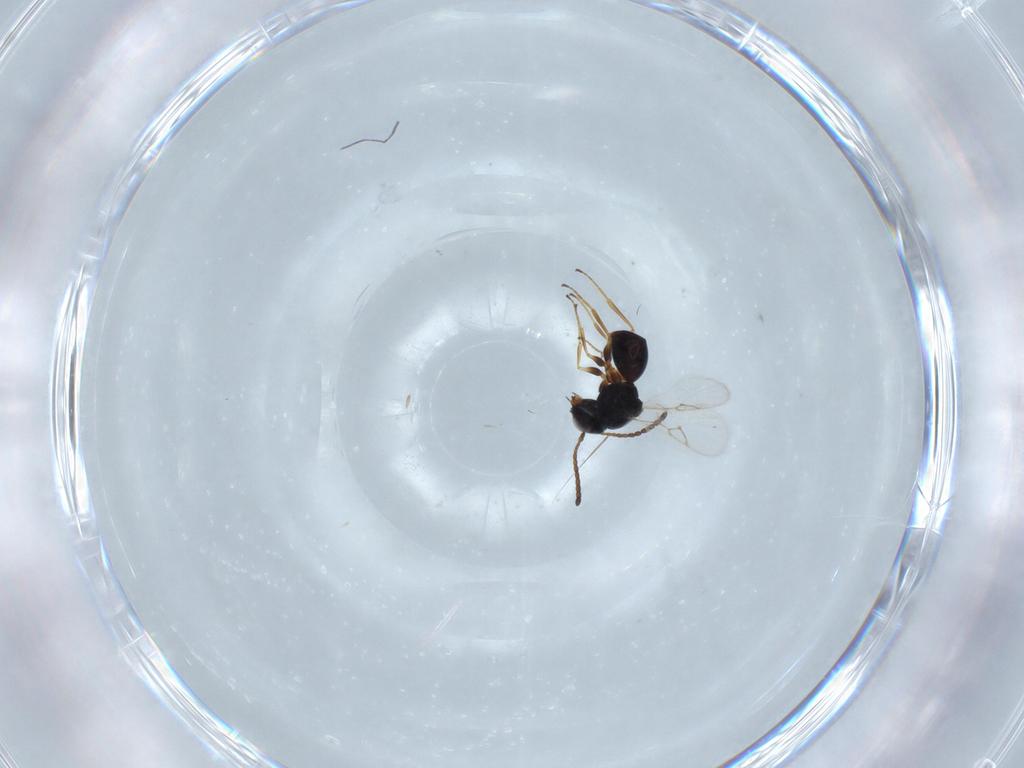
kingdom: Animalia
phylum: Arthropoda
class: Insecta
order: Hymenoptera
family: Figitidae
